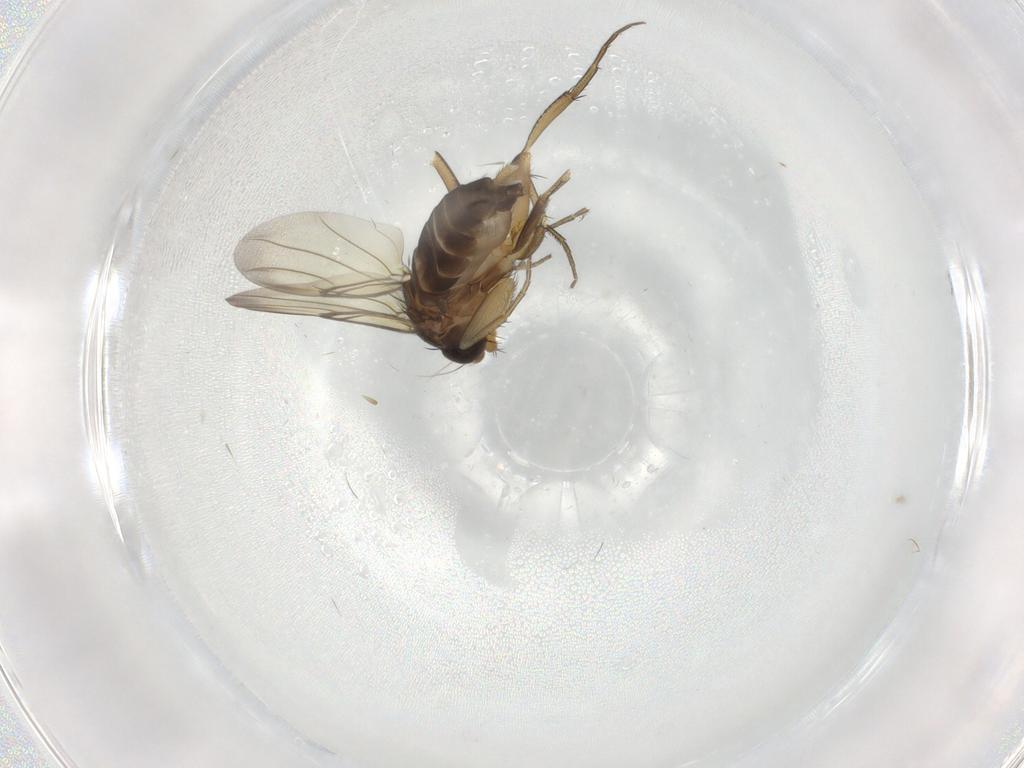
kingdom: Animalia
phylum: Arthropoda
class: Insecta
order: Diptera
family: Phoridae
